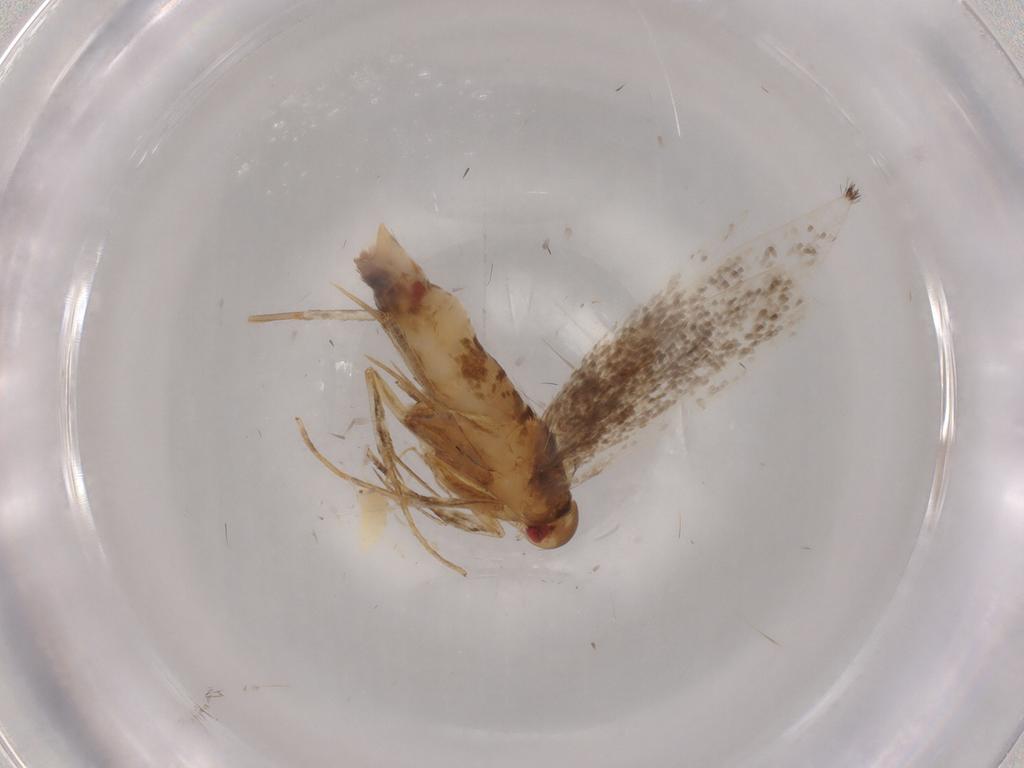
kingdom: Animalia
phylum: Arthropoda
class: Insecta
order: Lepidoptera
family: Cosmopterigidae
